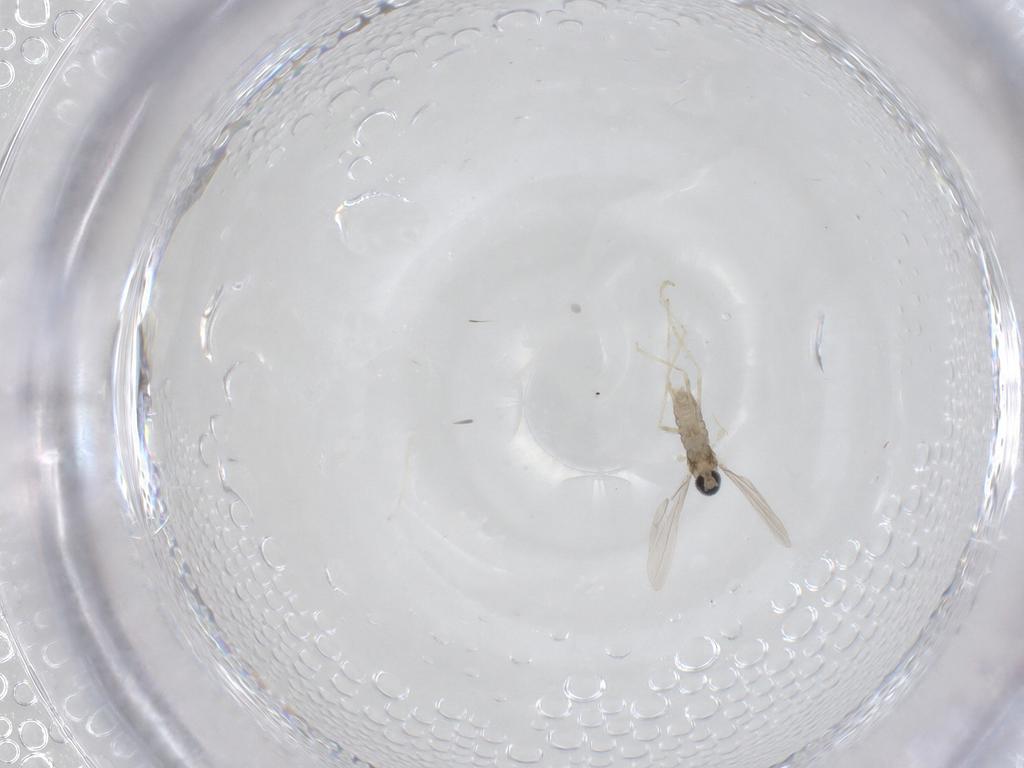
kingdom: Animalia
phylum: Arthropoda
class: Insecta
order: Diptera
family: Cecidomyiidae
